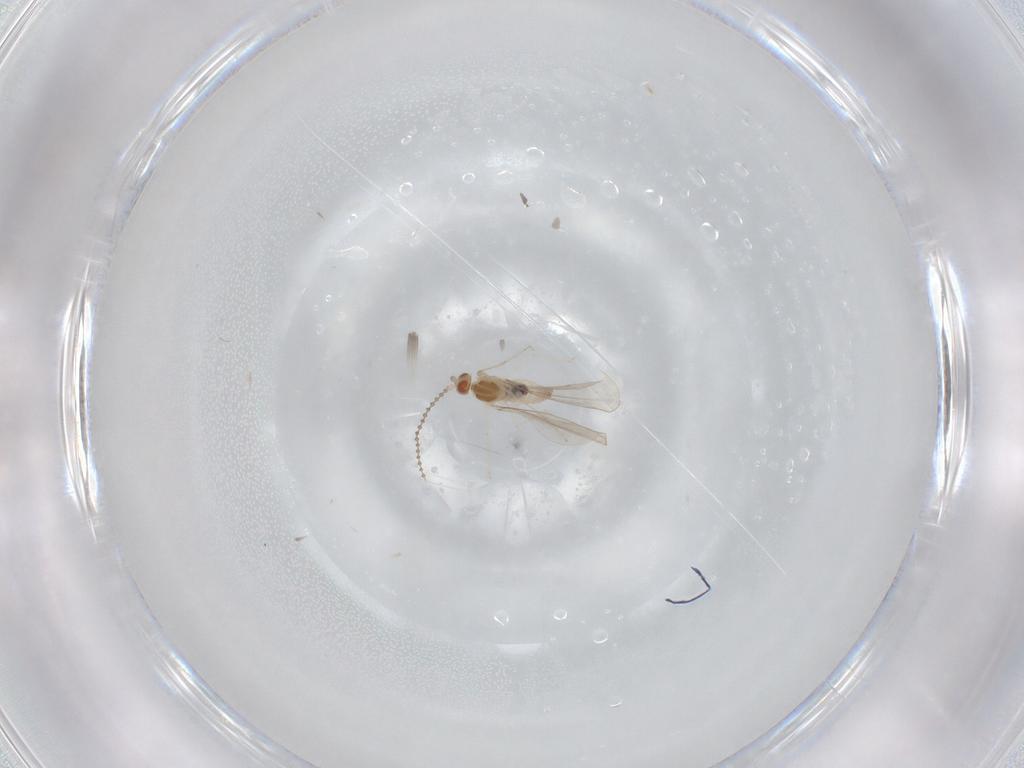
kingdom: Animalia
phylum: Arthropoda
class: Insecta
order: Diptera
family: Cecidomyiidae
